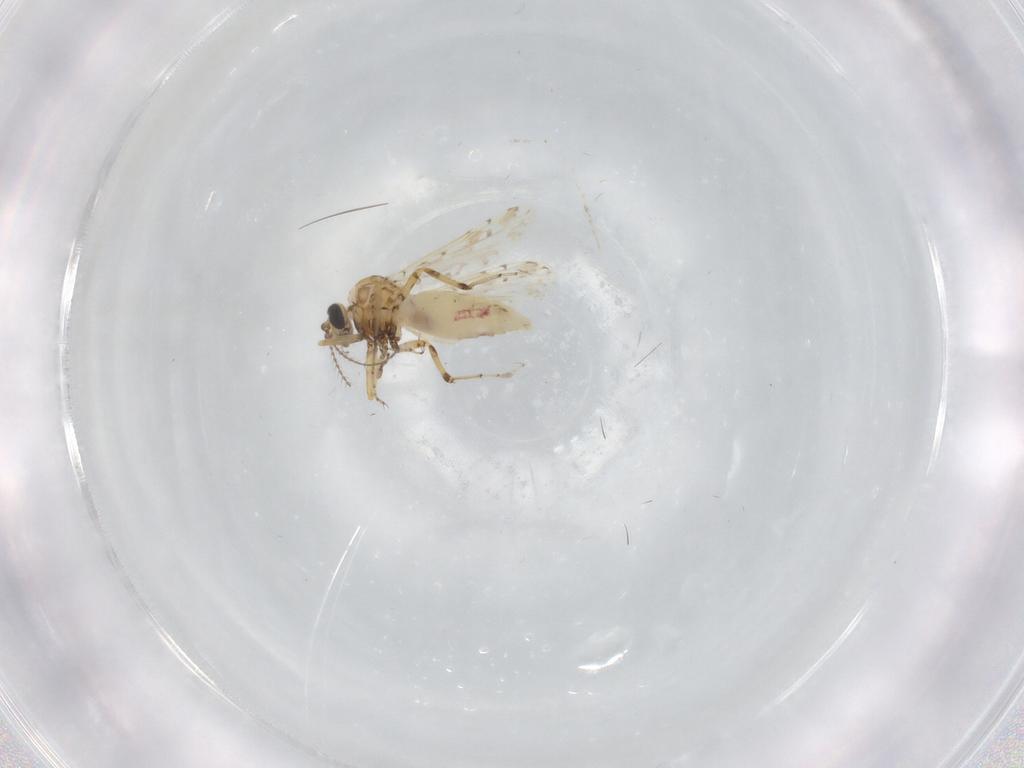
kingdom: Animalia
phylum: Arthropoda
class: Insecta
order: Diptera
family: Cecidomyiidae
